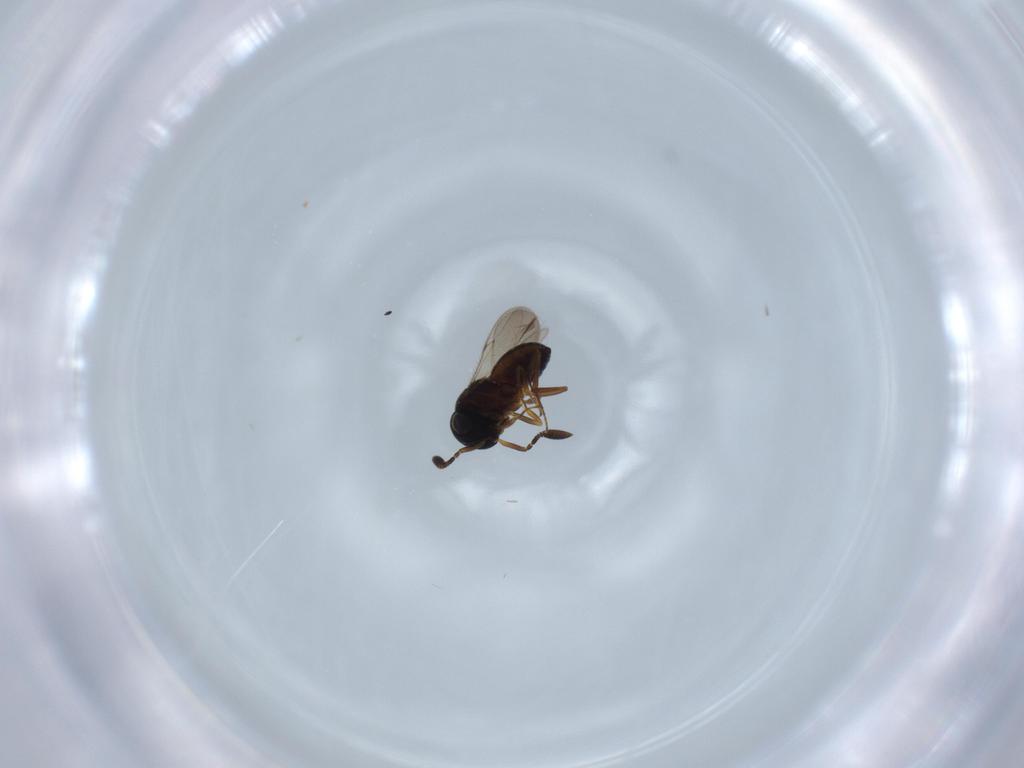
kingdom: Animalia
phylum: Arthropoda
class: Insecta
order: Hymenoptera
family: Scelionidae
